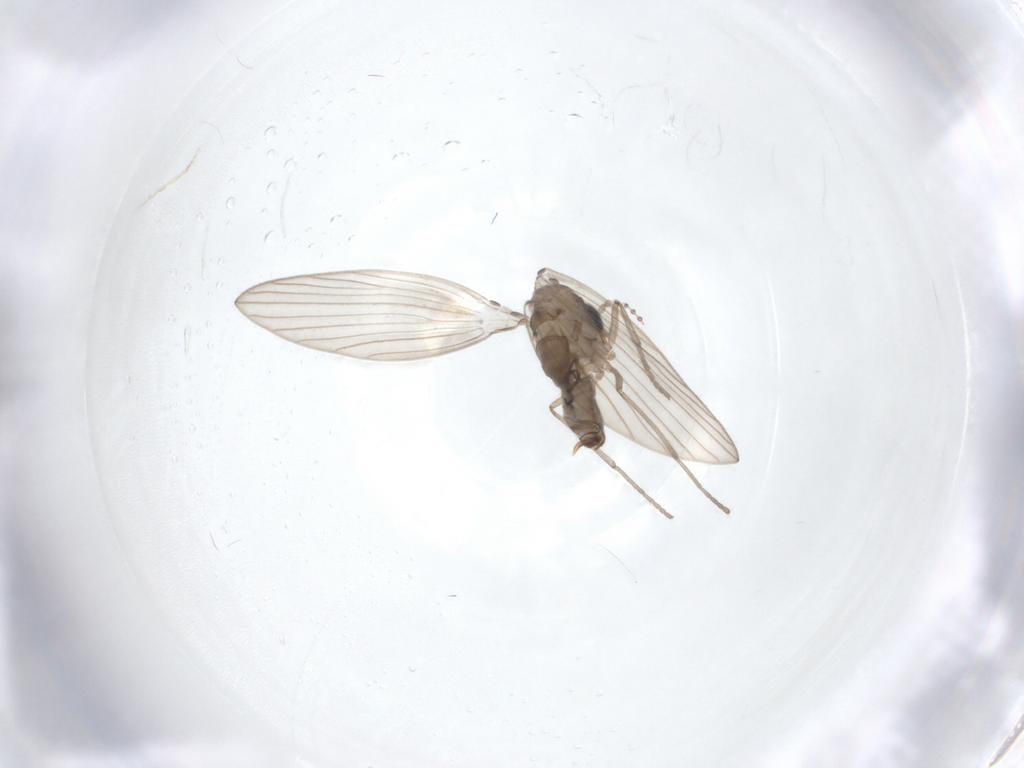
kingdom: Animalia
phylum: Arthropoda
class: Insecta
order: Diptera
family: Psychodidae
